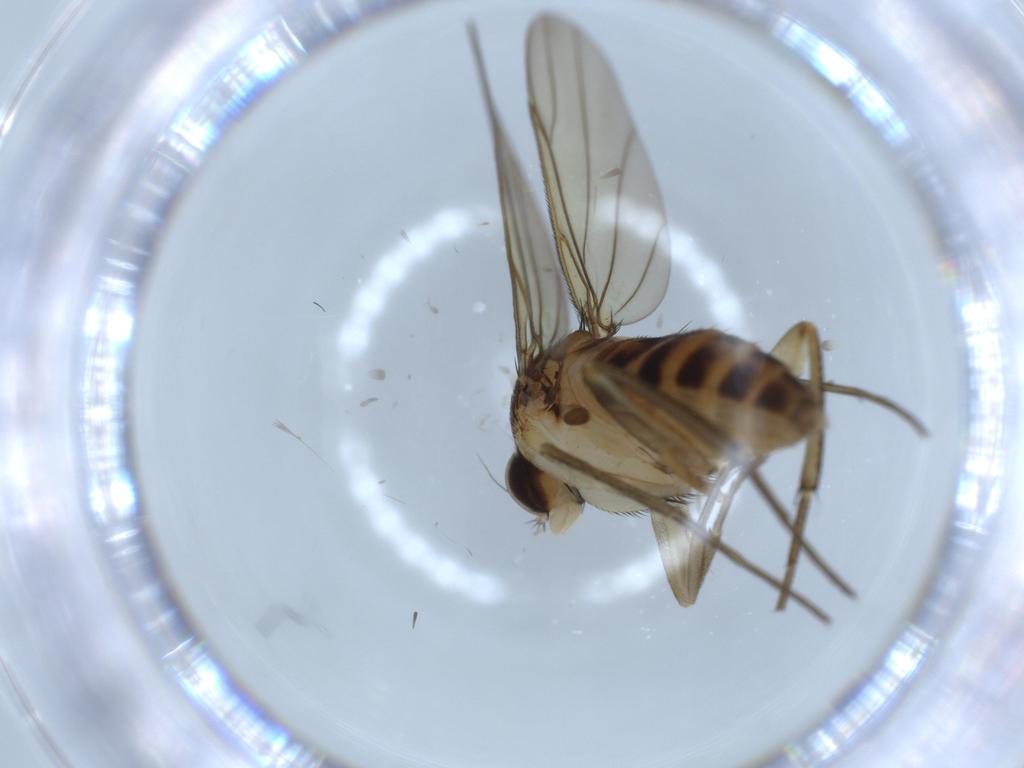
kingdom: Animalia
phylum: Arthropoda
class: Insecta
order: Diptera
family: Phoridae
